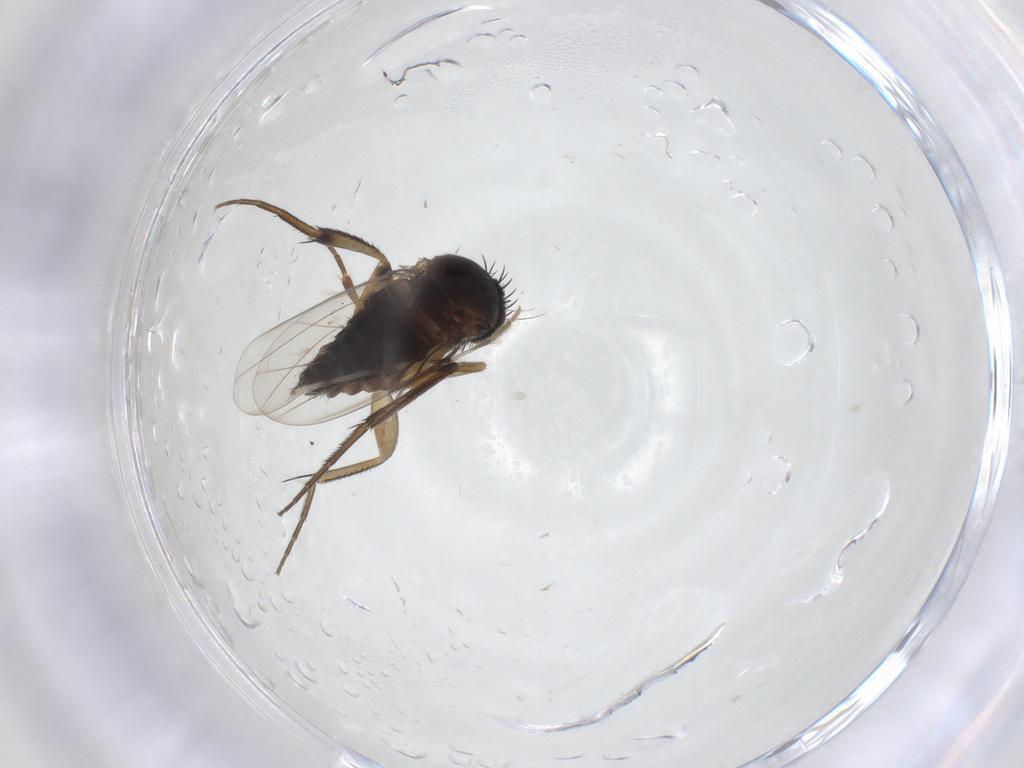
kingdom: Animalia
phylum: Arthropoda
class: Insecta
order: Diptera
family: Phoridae
